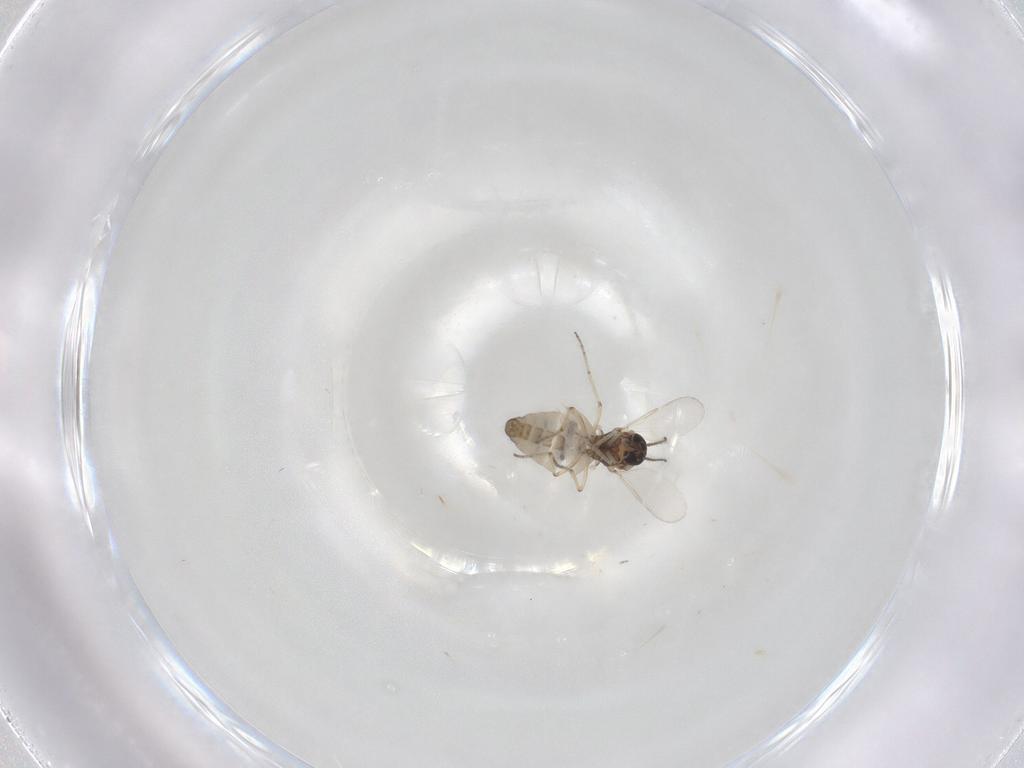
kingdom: Animalia
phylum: Arthropoda
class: Insecta
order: Diptera
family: Ceratopogonidae
